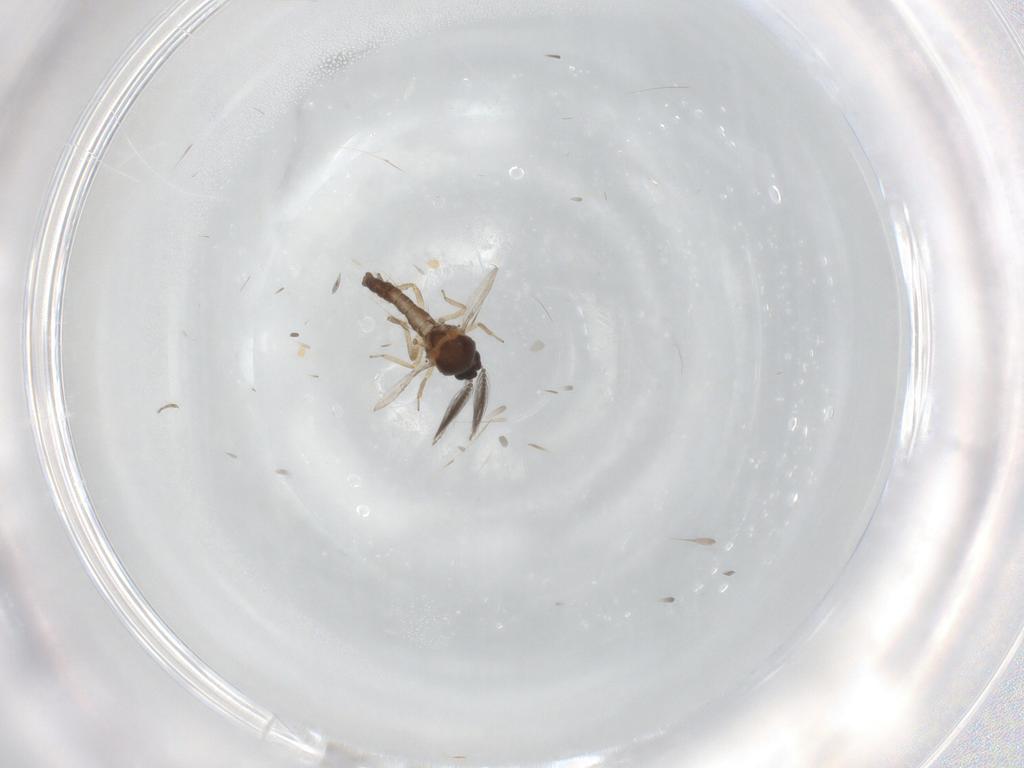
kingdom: Animalia
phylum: Arthropoda
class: Insecta
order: Diptera
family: Ceratopogonidae
